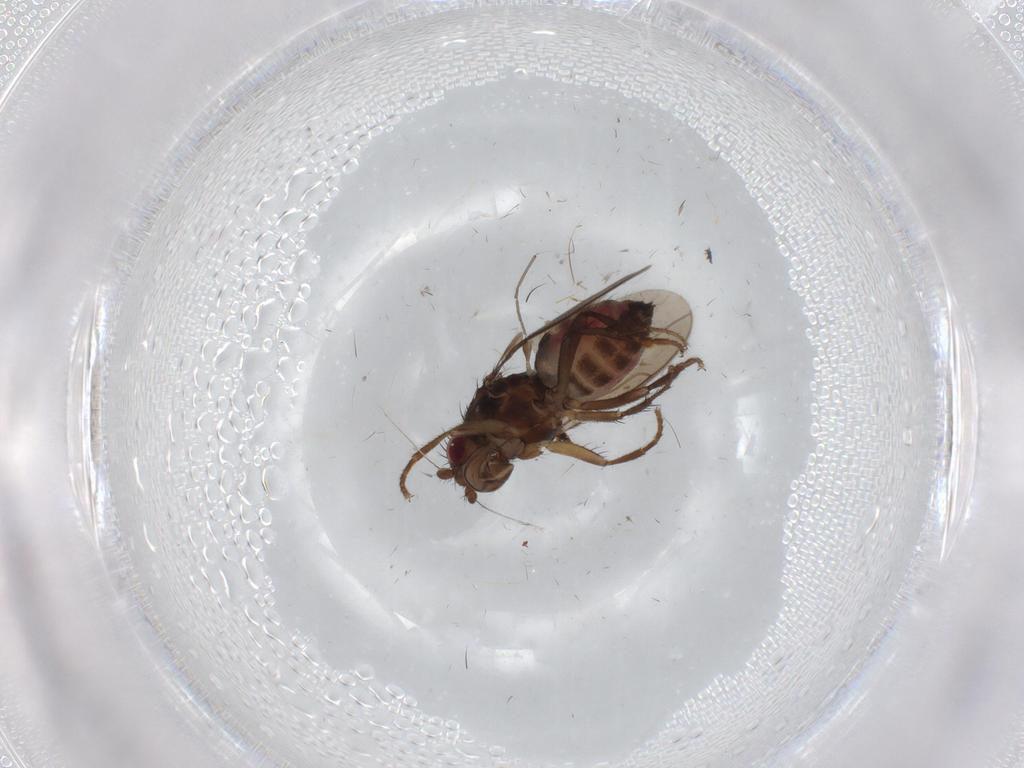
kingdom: Animalia
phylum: Arthropoda
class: Insecta
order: Diptera
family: Cecidomyiidae
